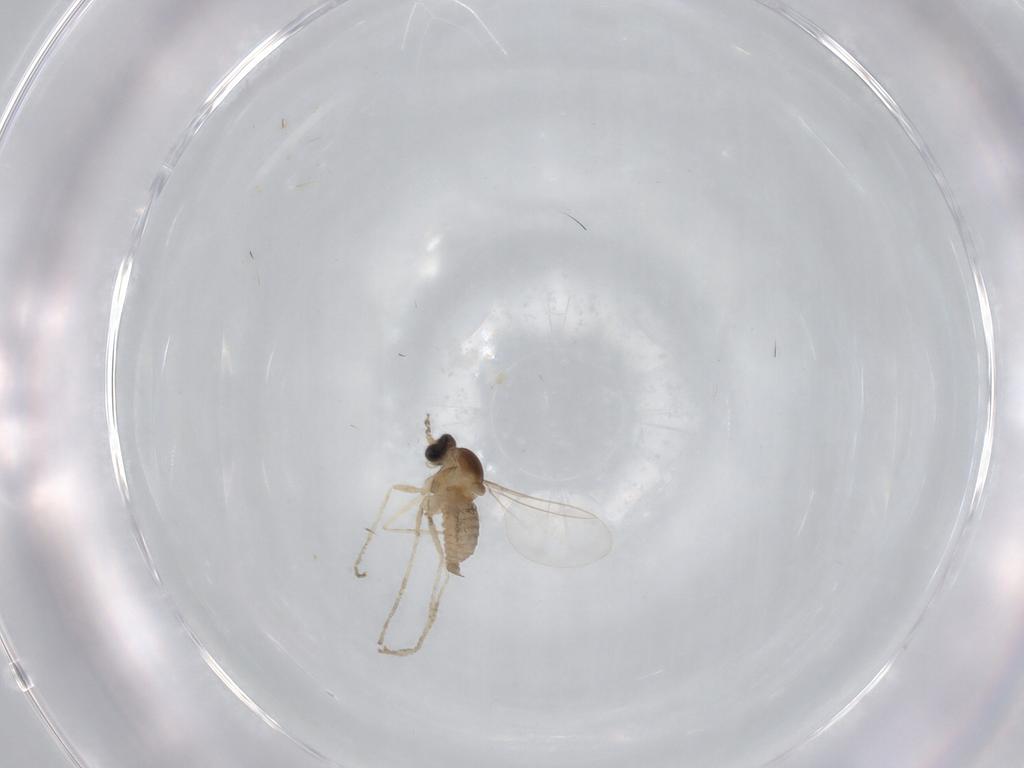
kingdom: Animalia
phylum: Arthropoda
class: Insecta
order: Diptera
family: Cecidomyiidae
